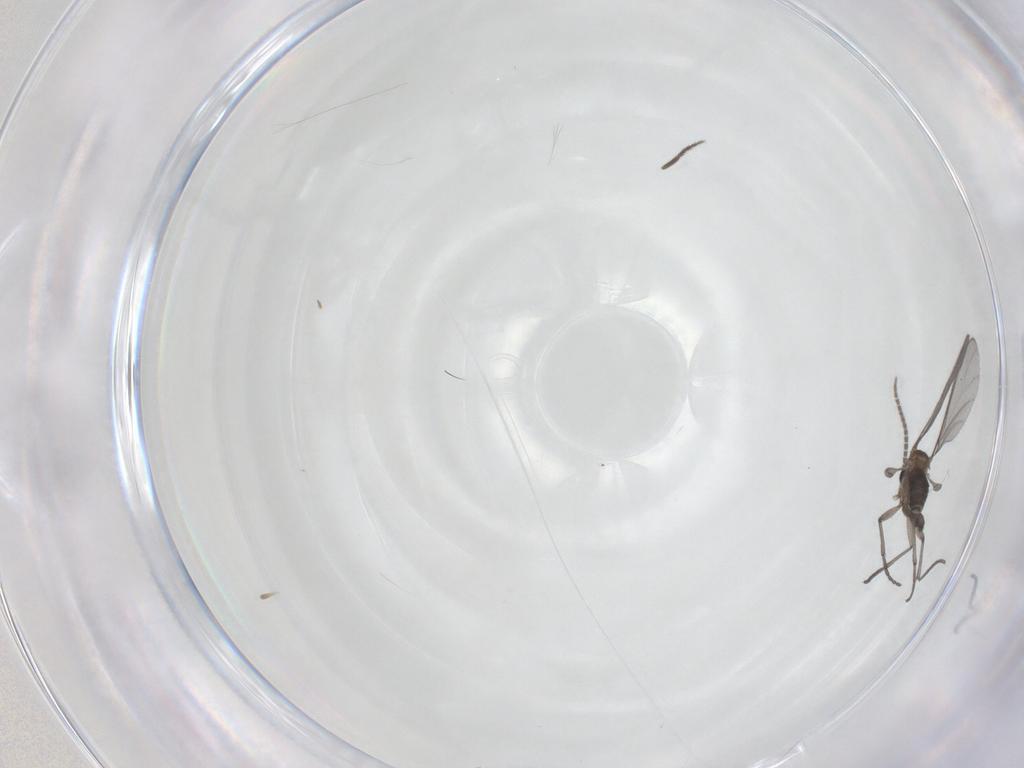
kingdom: Animalia
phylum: Arthropoda
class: Insecta
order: Diptera
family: Sciaridae
